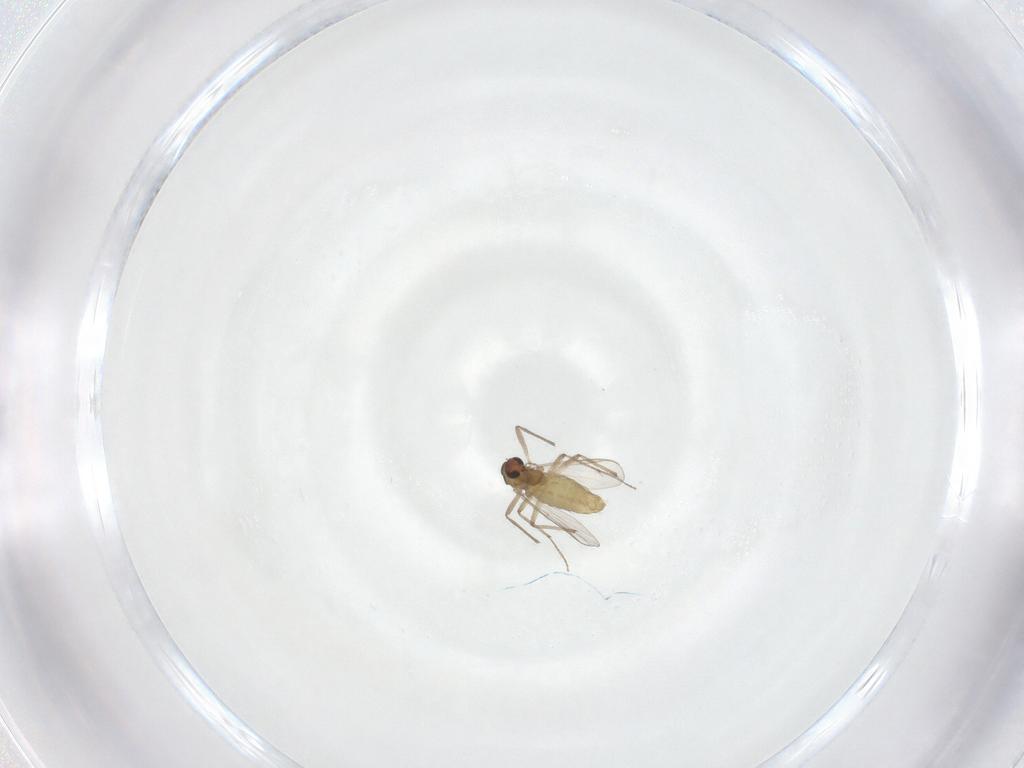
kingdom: Animalia
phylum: Arthropoda
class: Insecta
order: Diptera
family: Chironomidae
